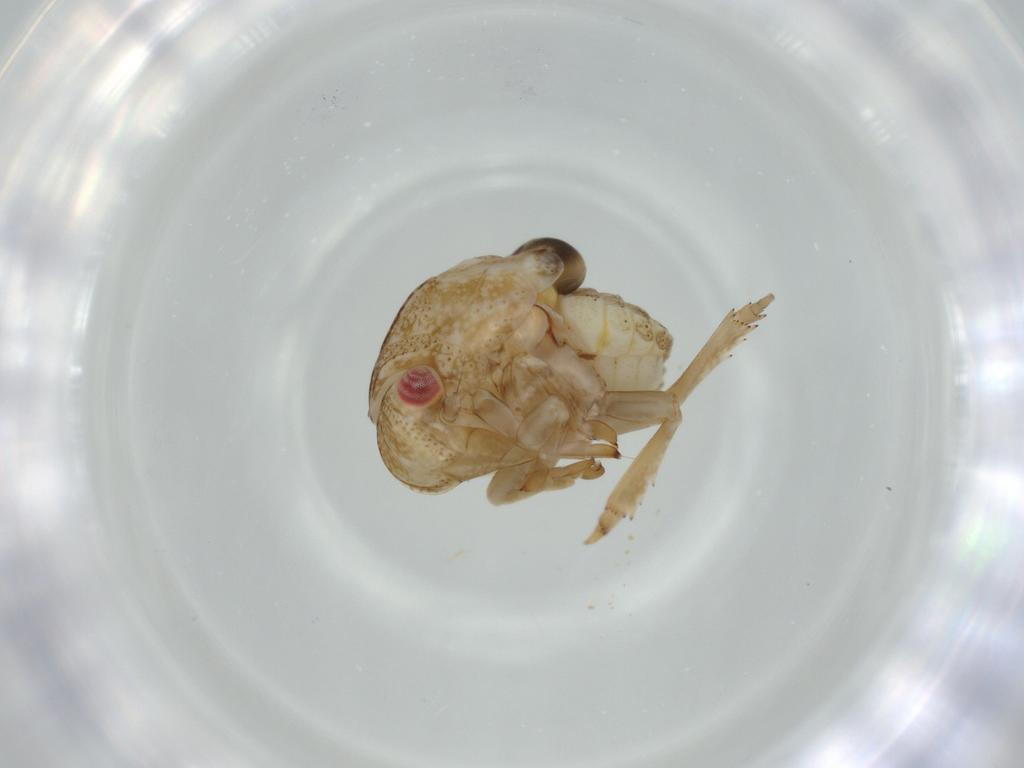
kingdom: Animalia
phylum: Arthropoda
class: Insecta
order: Hemiptera
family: Acanaloniidae
